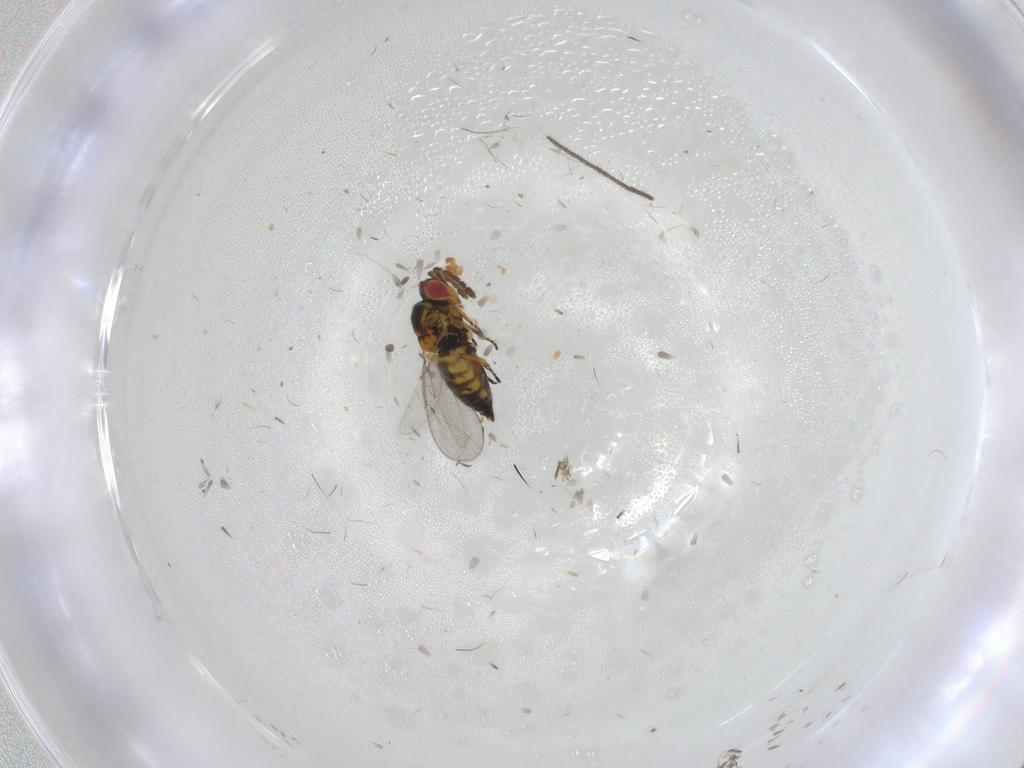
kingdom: Animalia
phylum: Arthropoda
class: Insecta
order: Hymenoptera
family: Eulophidae
